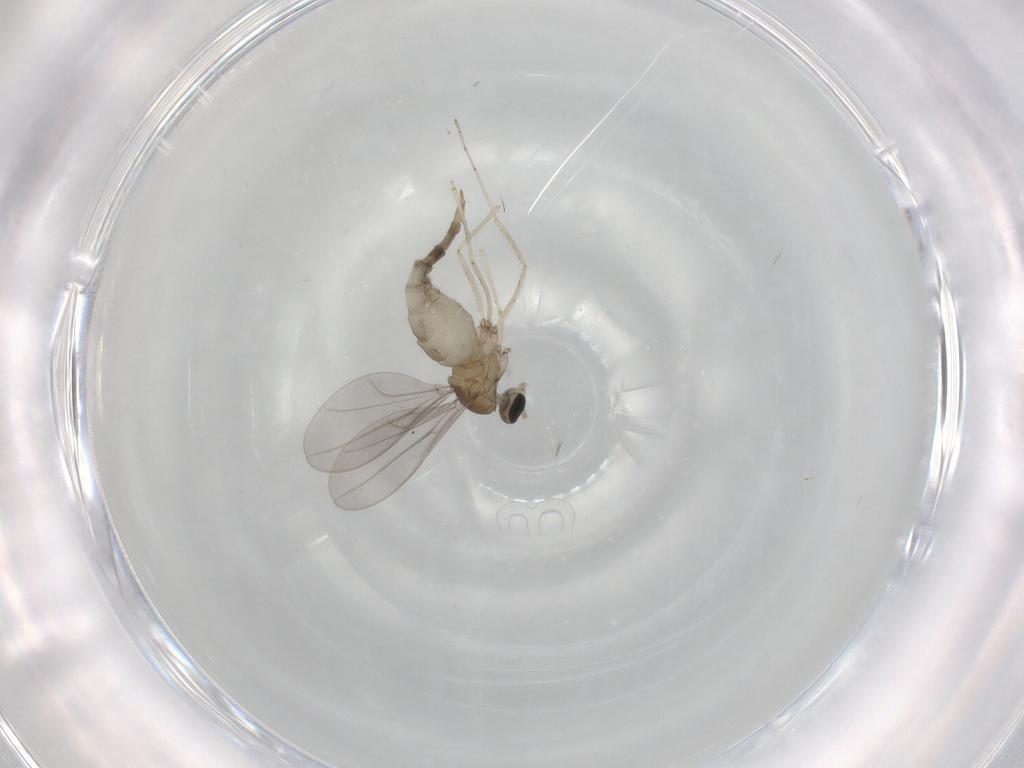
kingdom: Animalia
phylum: Arthropoda
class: Insecta
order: Diptera
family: Cecidomyiidae
